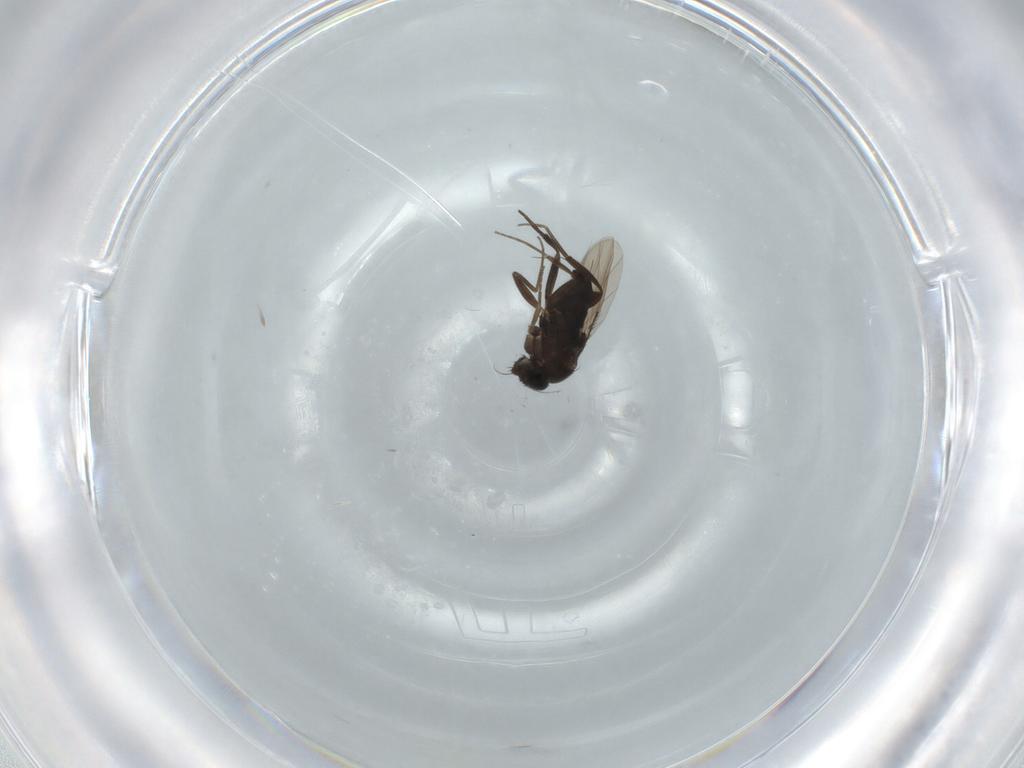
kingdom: Animalia
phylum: Arthropoda
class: Insecta
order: Diptera
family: Phoridae
